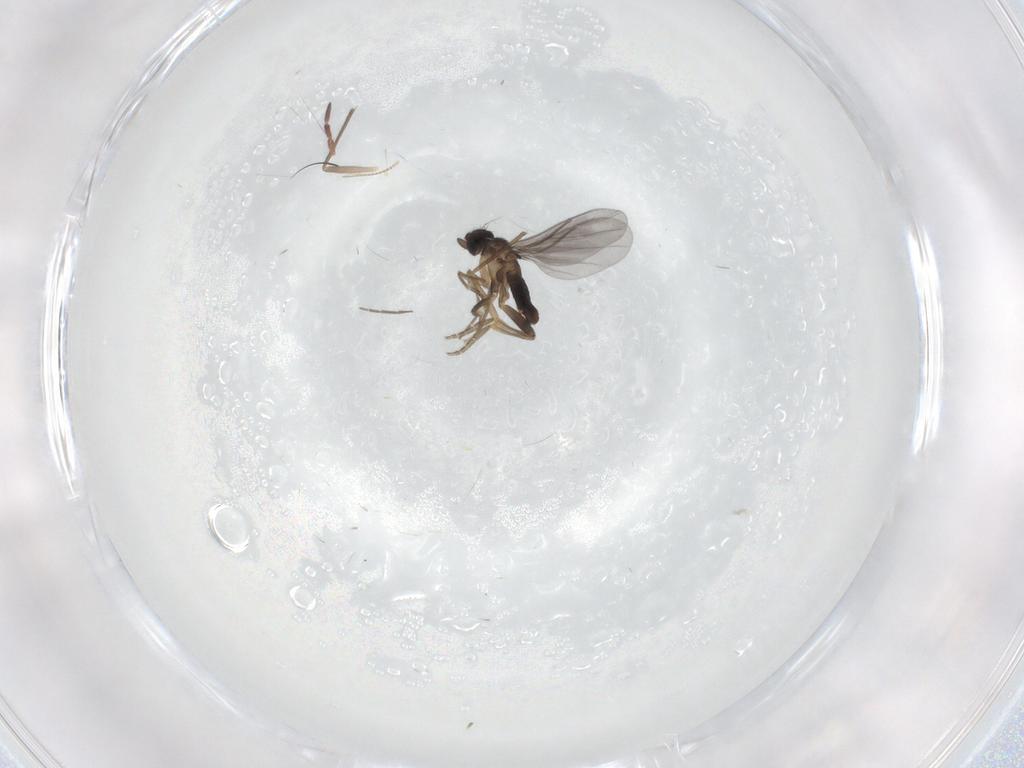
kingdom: Animalia
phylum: Arthropoda
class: Insecta
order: Diptera
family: Dolichopodidae
